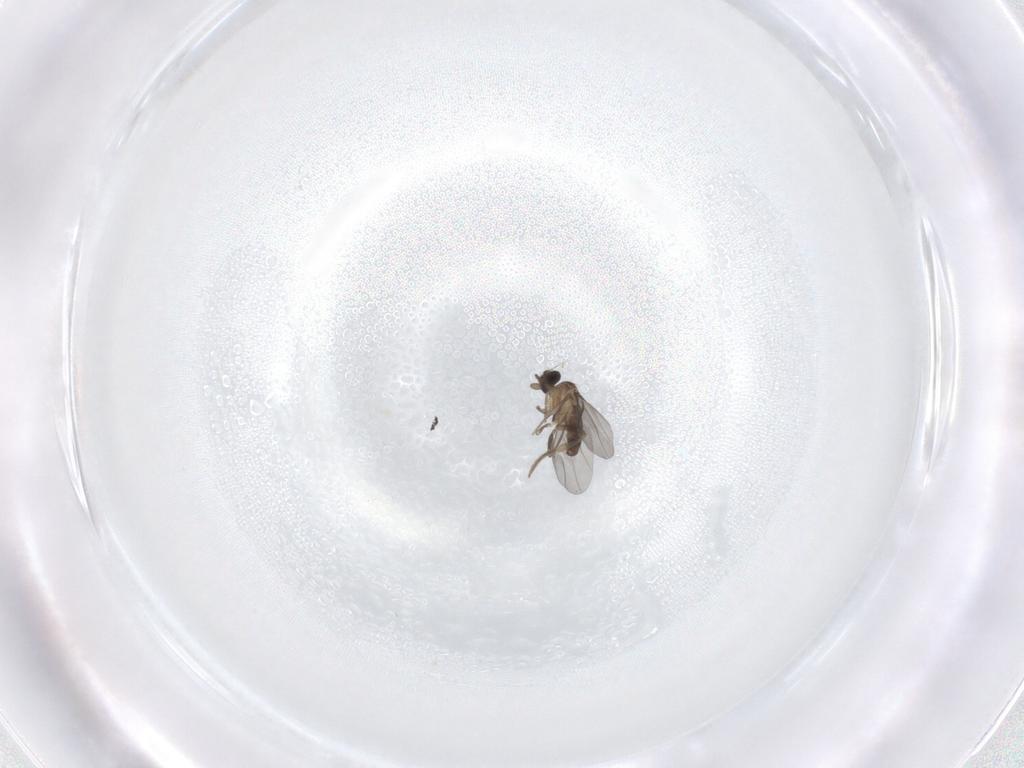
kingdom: Animalia
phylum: Arthropoda
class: Insecta
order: Diptera
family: Phoridae
